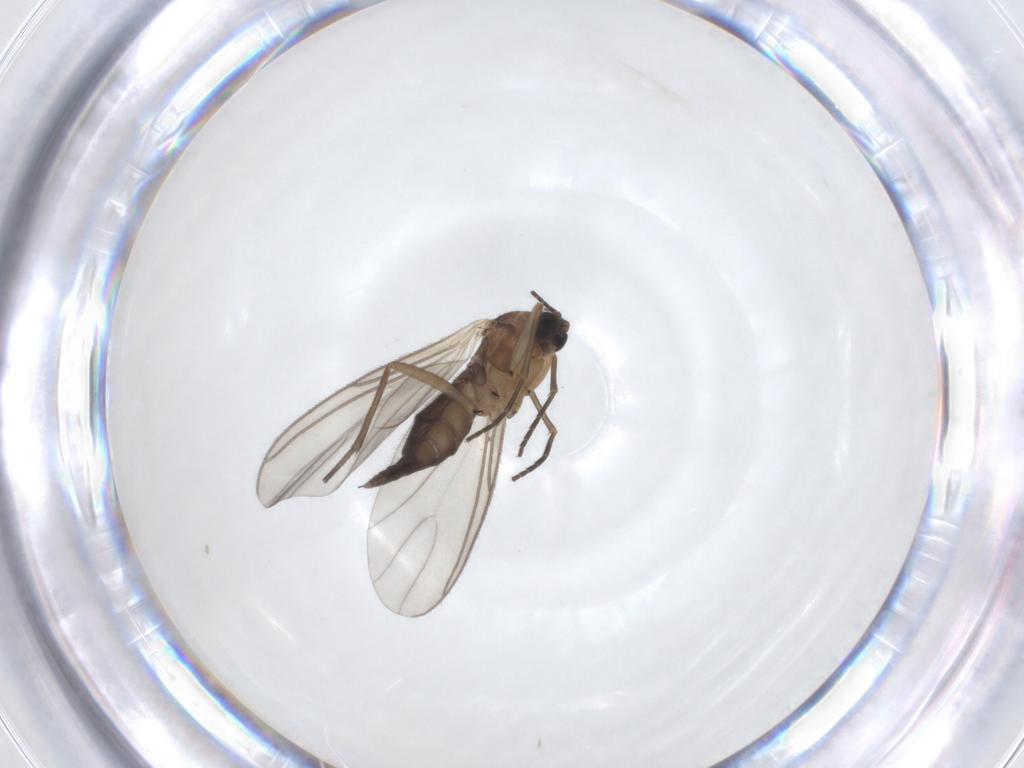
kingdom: Animalia
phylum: Arthropoda
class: Insecta
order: Diptera
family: Sciaridae
